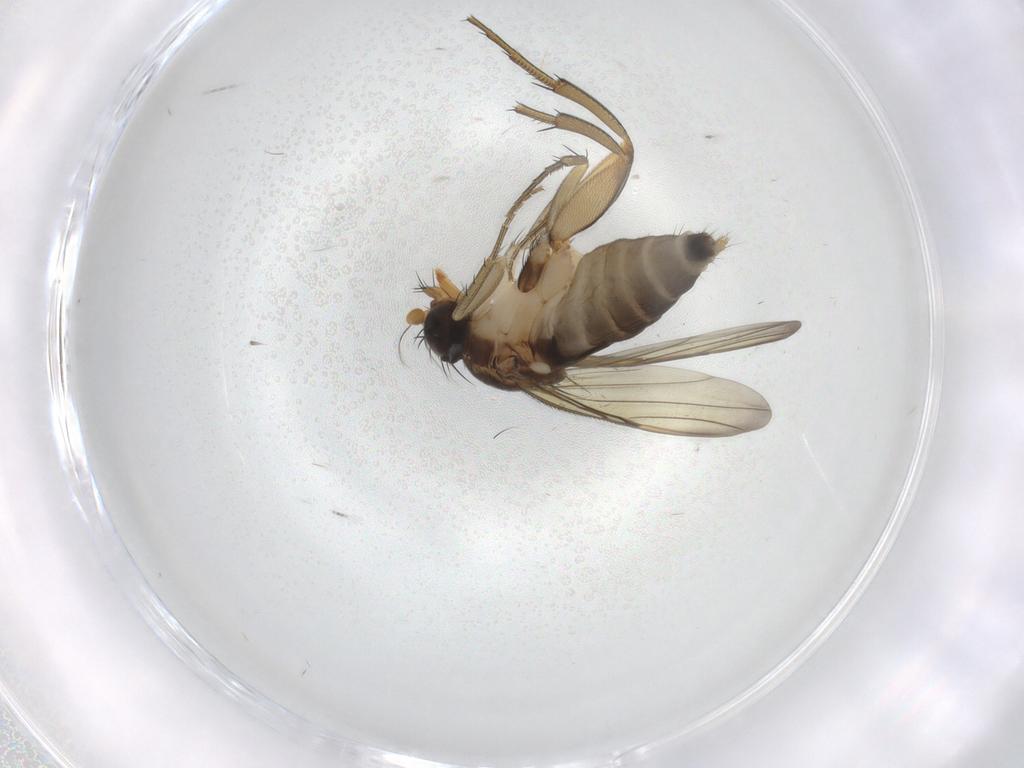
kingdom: Animalia
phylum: Arthropoda
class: Insecta
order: Diptera
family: Phoridae
